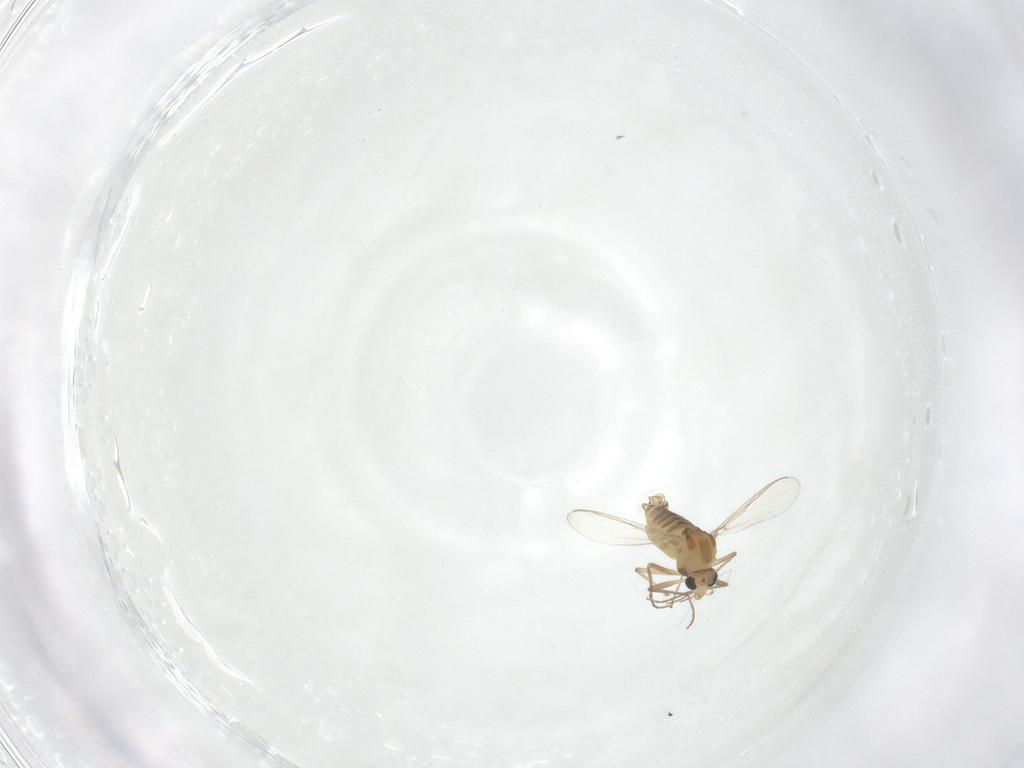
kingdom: Animalia
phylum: Arthropoda
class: Insecta
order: Diptera
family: Chironomidae
